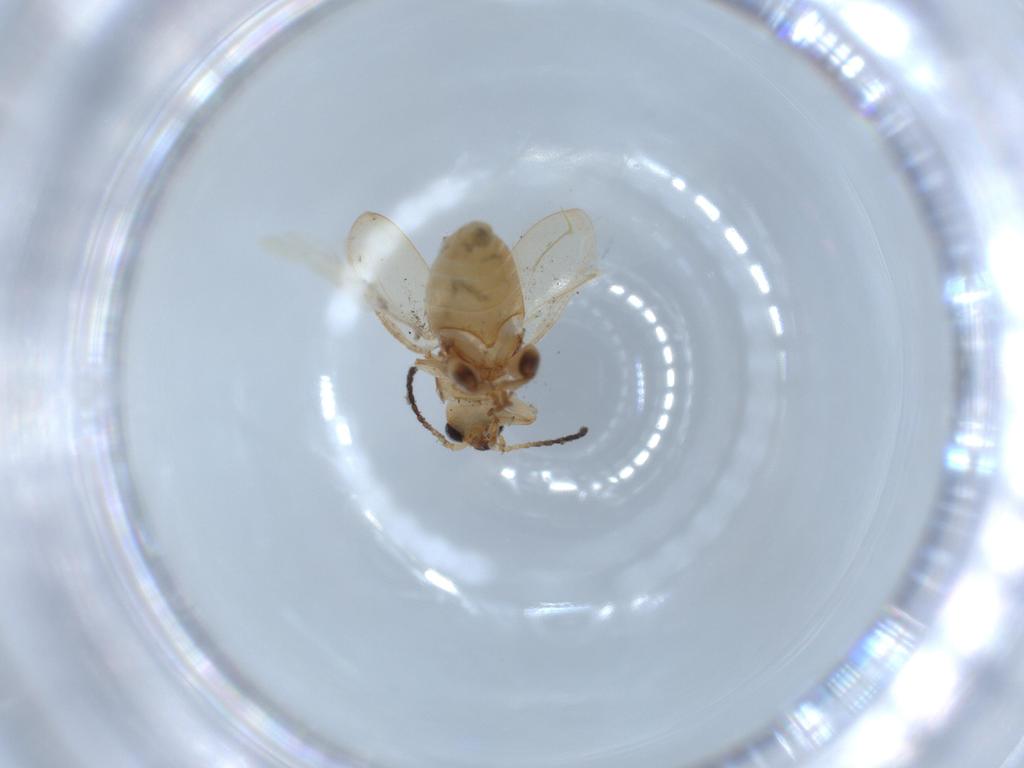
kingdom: Animalia
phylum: Arthropoda
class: Insecta
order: Coleoptera
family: Chrysomelidae
